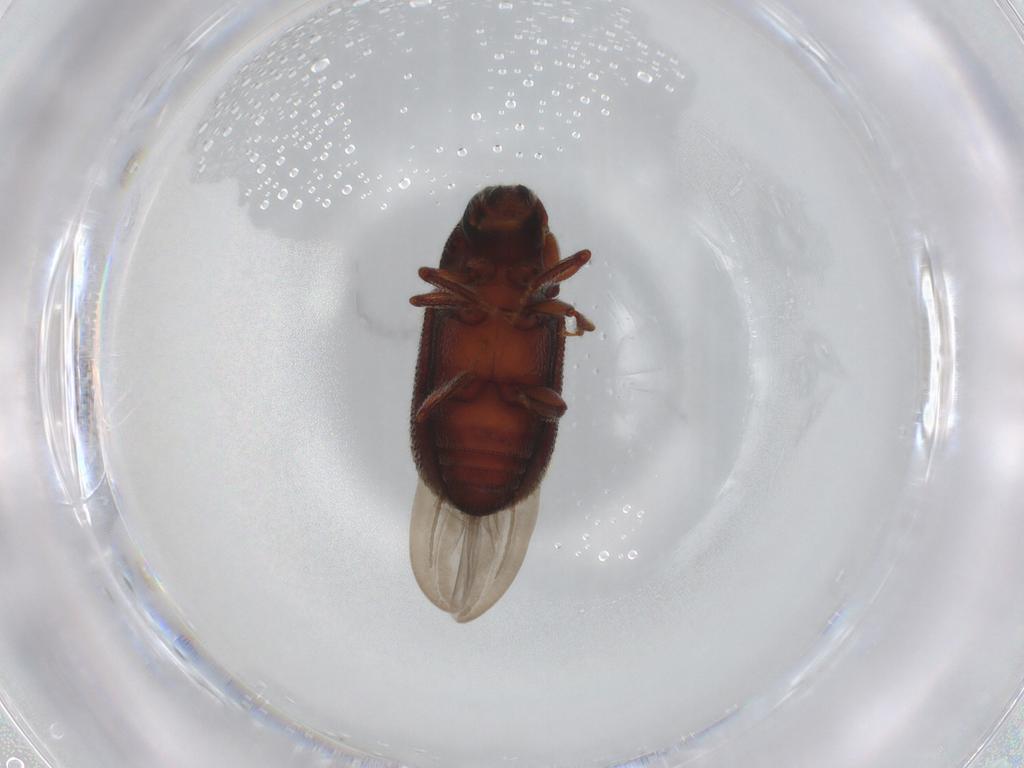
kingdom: Animalia
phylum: Arthropoda
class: Insecta
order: Coleoptera
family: Curculionidae
